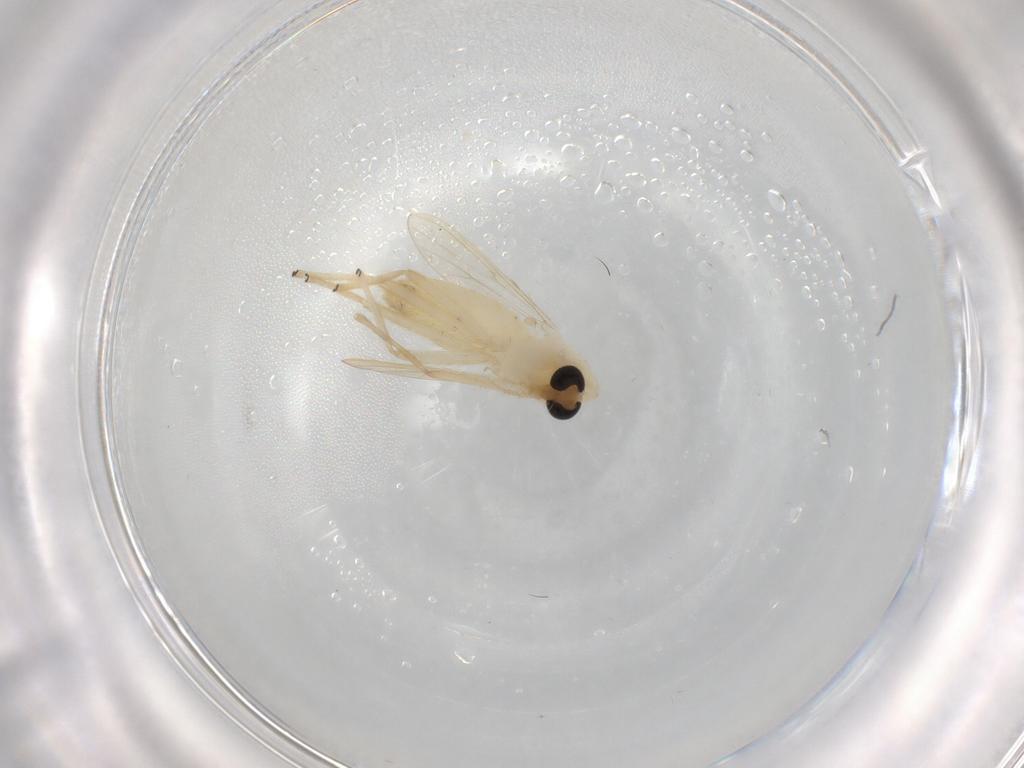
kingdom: Animalia
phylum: Arthropoda
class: Insecta
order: Diptera
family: Chironomidae
